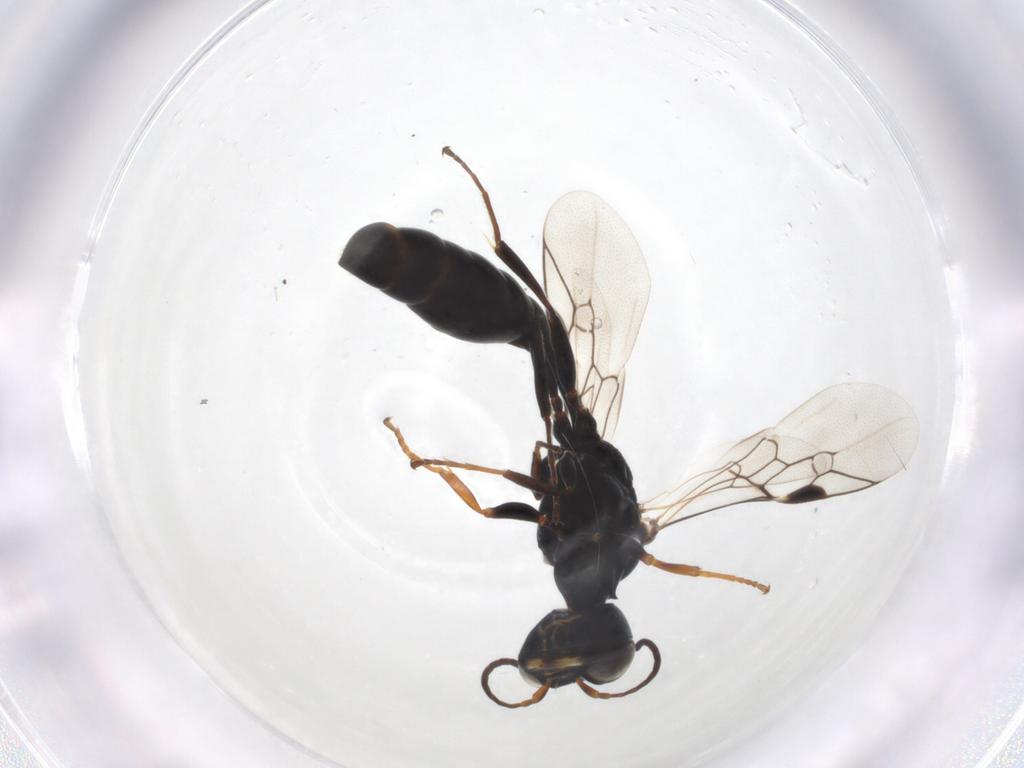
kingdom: Animalia
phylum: Arthropoda
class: Insecta
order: Hymenoptera
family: Crabronidae
